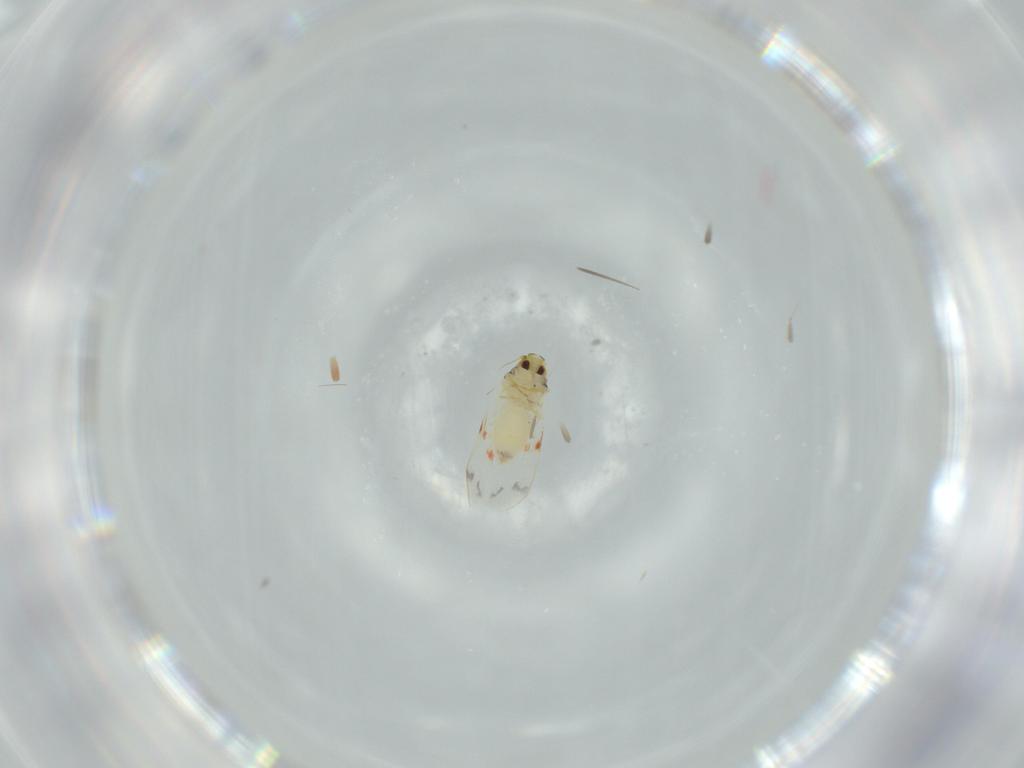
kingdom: Animalia
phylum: Arthropoda
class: Insecta
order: Hemiptera
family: Aleyrodidae
